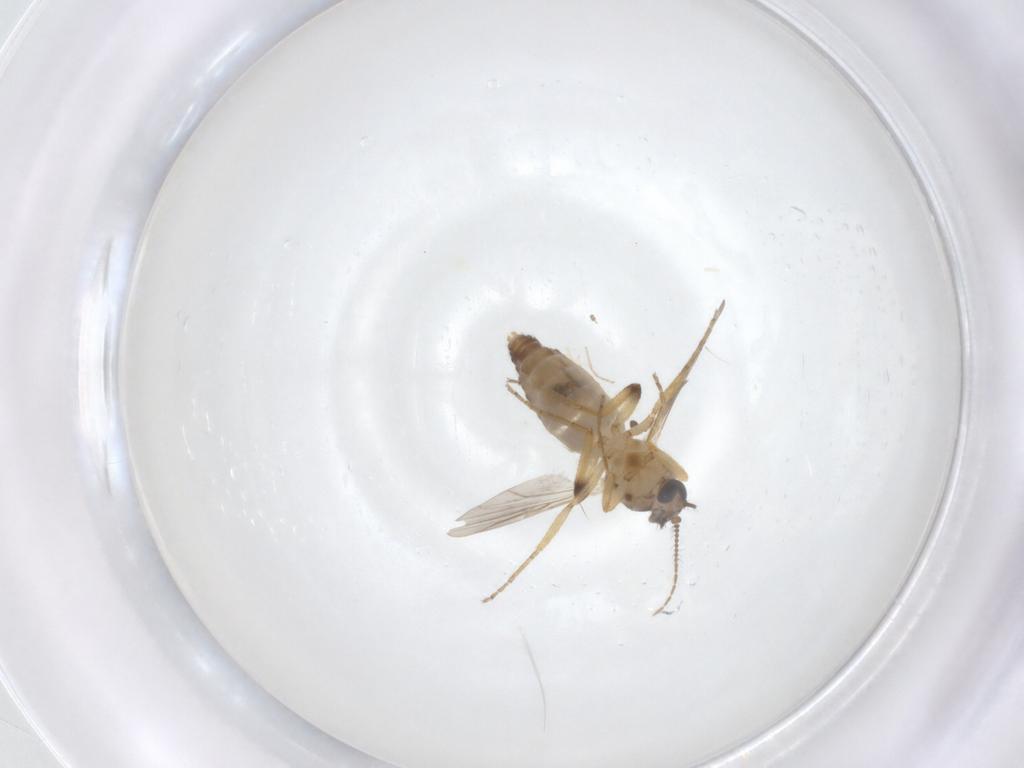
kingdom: Animalia
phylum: Arthropoda
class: Insecta
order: Diptera
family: Ceratopogonidae
